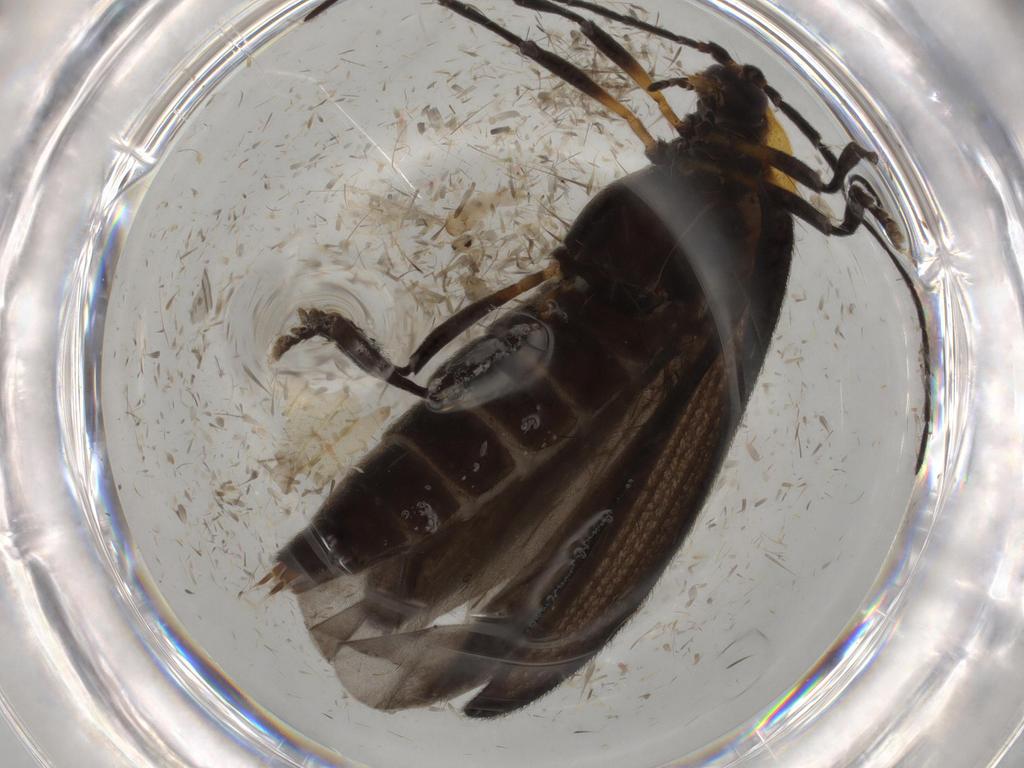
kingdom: Animalia
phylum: Arthropoda
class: Insecta
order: Coleoptera
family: Lycidae
